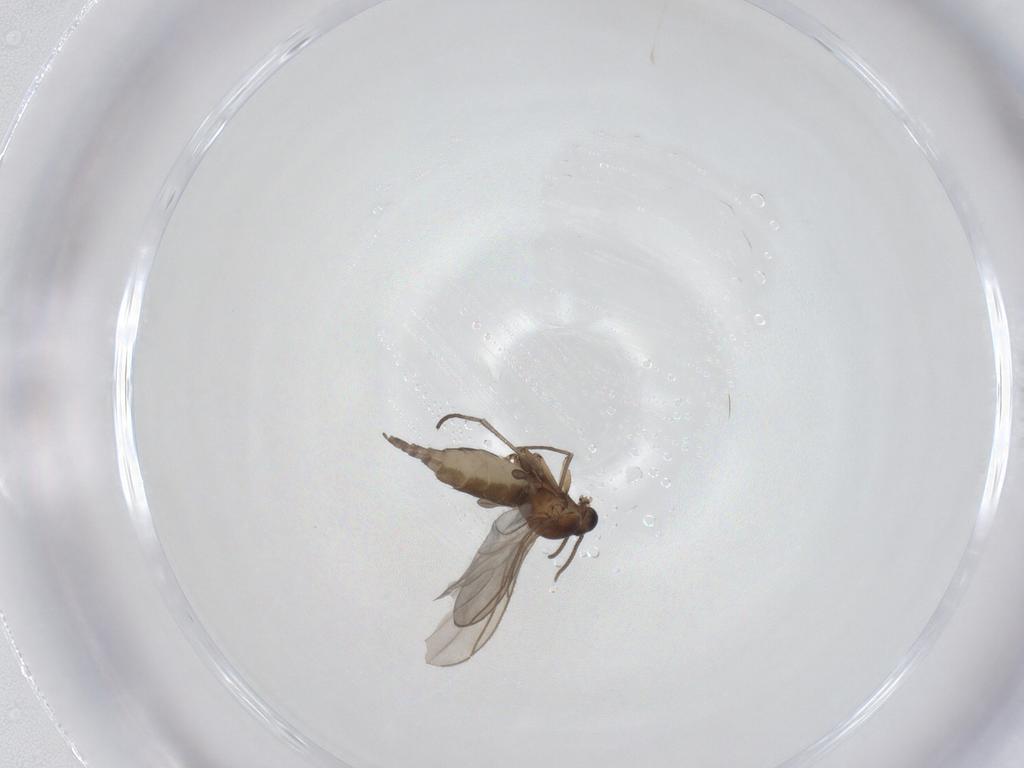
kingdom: Animalia
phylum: Arthropoda
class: Insecta
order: Diptera
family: Sciaridae
